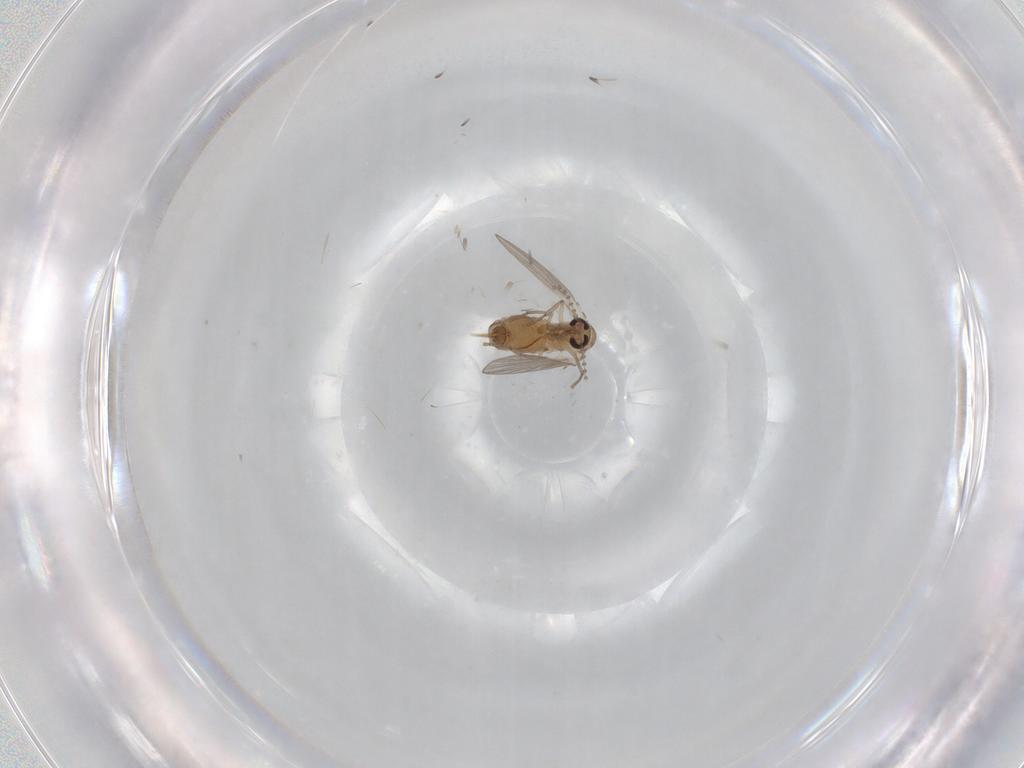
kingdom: Animalia
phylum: Arthropoda
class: Insecta
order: Diptera
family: Psychodidae
